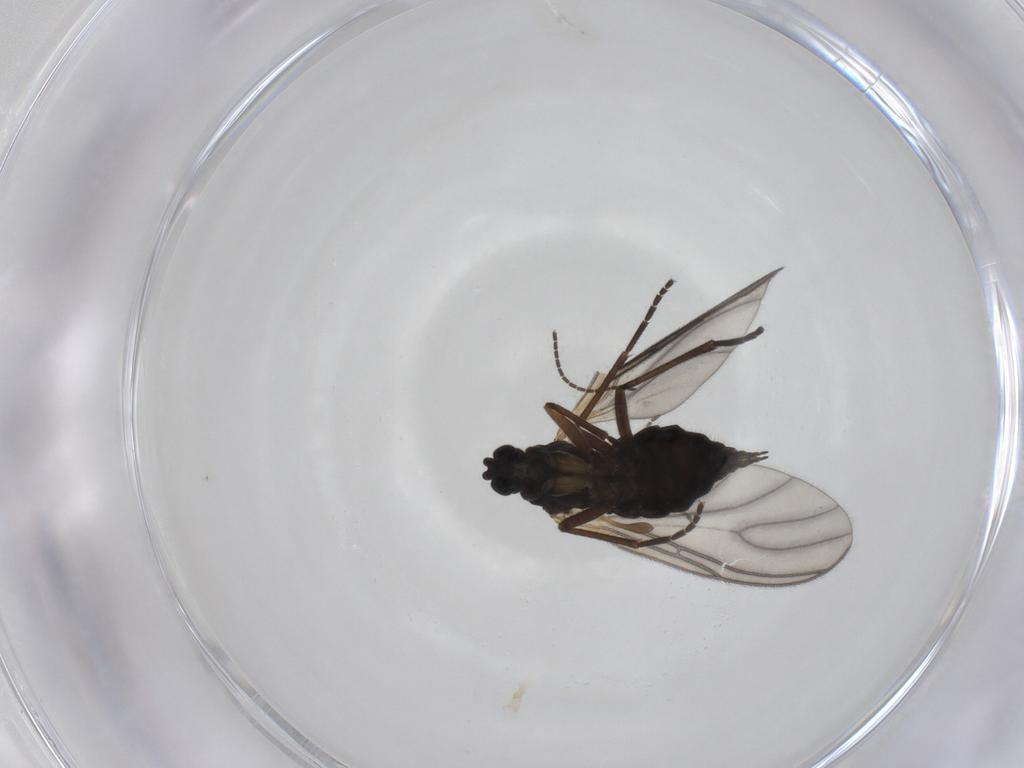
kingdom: Animalia
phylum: Arthropoda
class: Insecta
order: Diptera
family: Sciaridae
